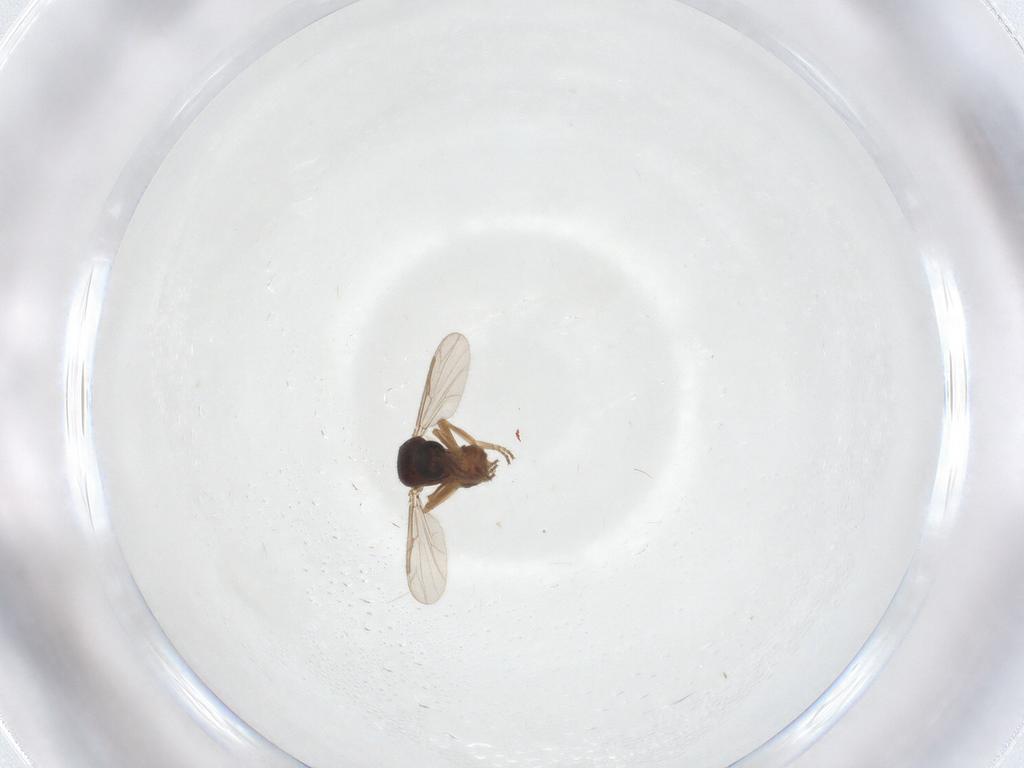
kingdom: Animalia
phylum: Arthropoda
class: Insecta
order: Diptera
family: Ceratopogonidae
